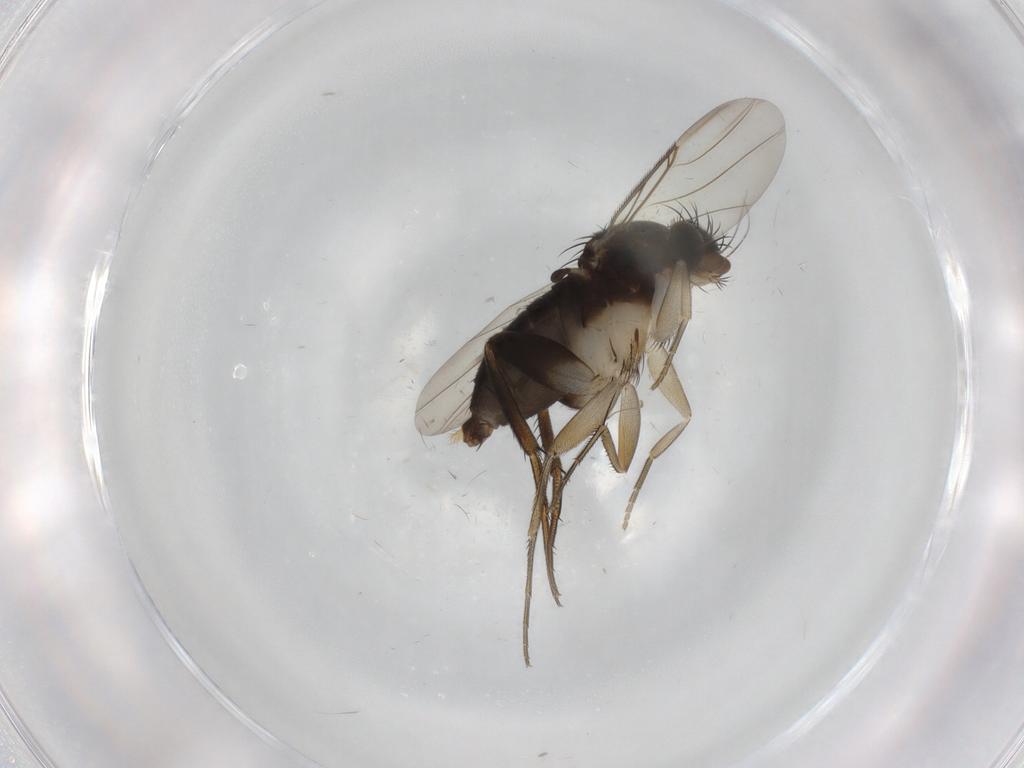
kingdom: Animalia
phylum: Arthropoda
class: Insecta
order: Diptera
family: Phoridae
